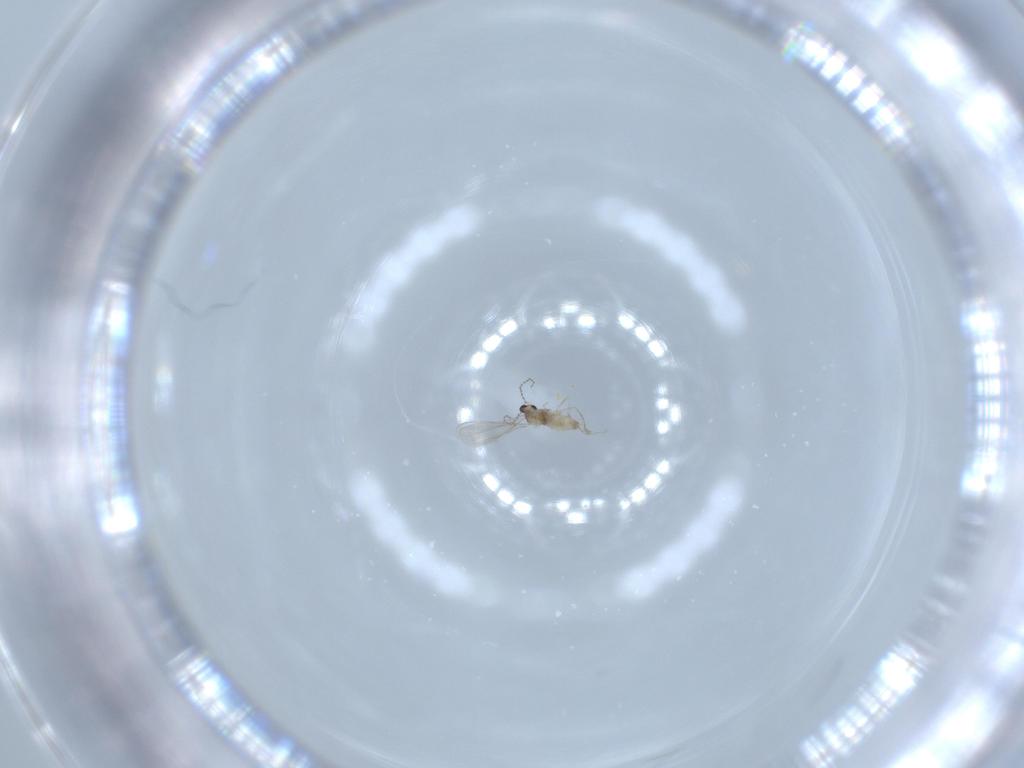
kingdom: Animalia
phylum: Arthropoda
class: Insecta
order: Diptera
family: Cecidomyiidae
